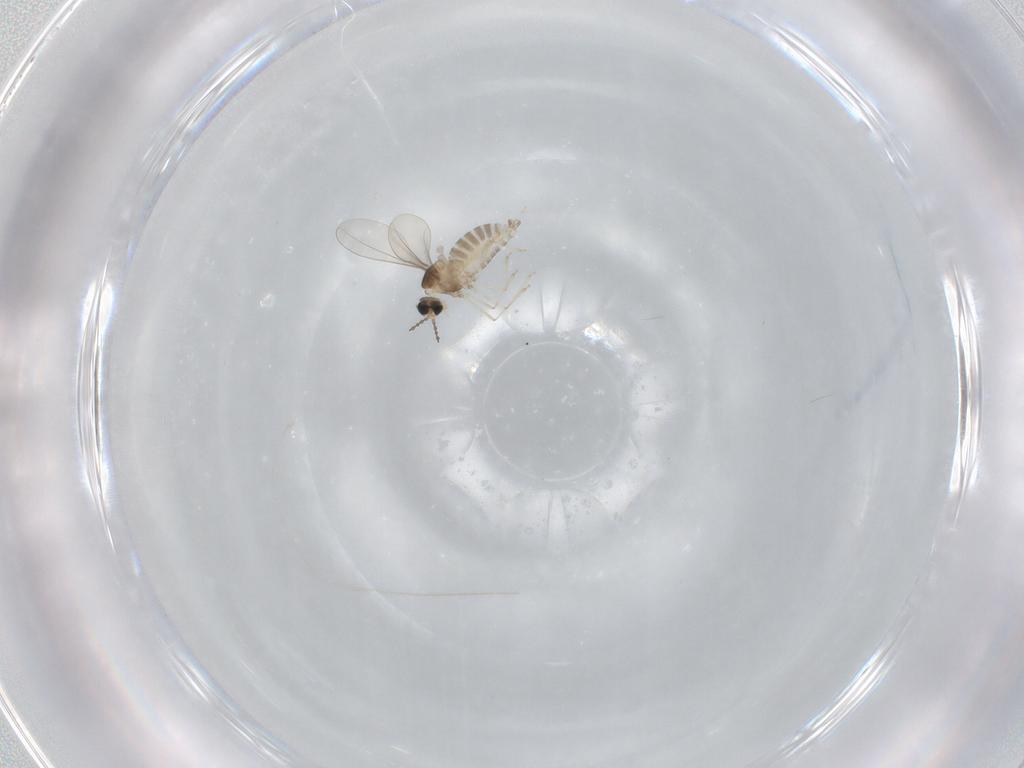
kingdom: Animalia
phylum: Arthropoda
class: Insecta
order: Diptera
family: Cecidomyiidae
